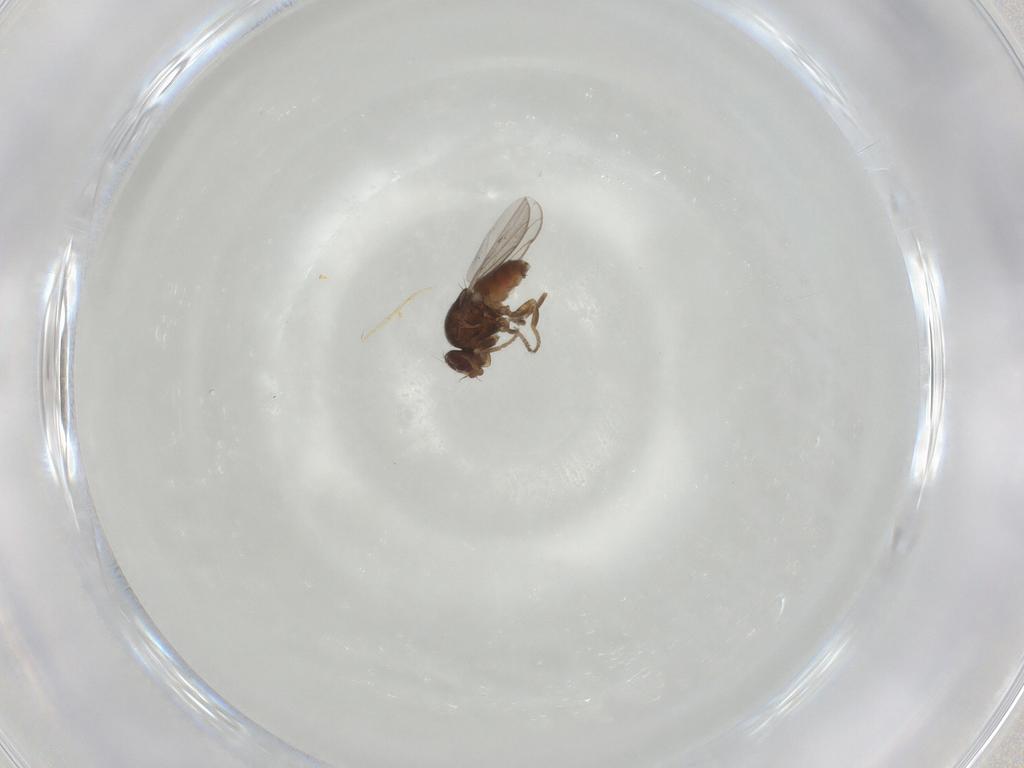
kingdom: Animalia
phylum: Arthropoda
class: Insecta
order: Diptera
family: Chloropidae
